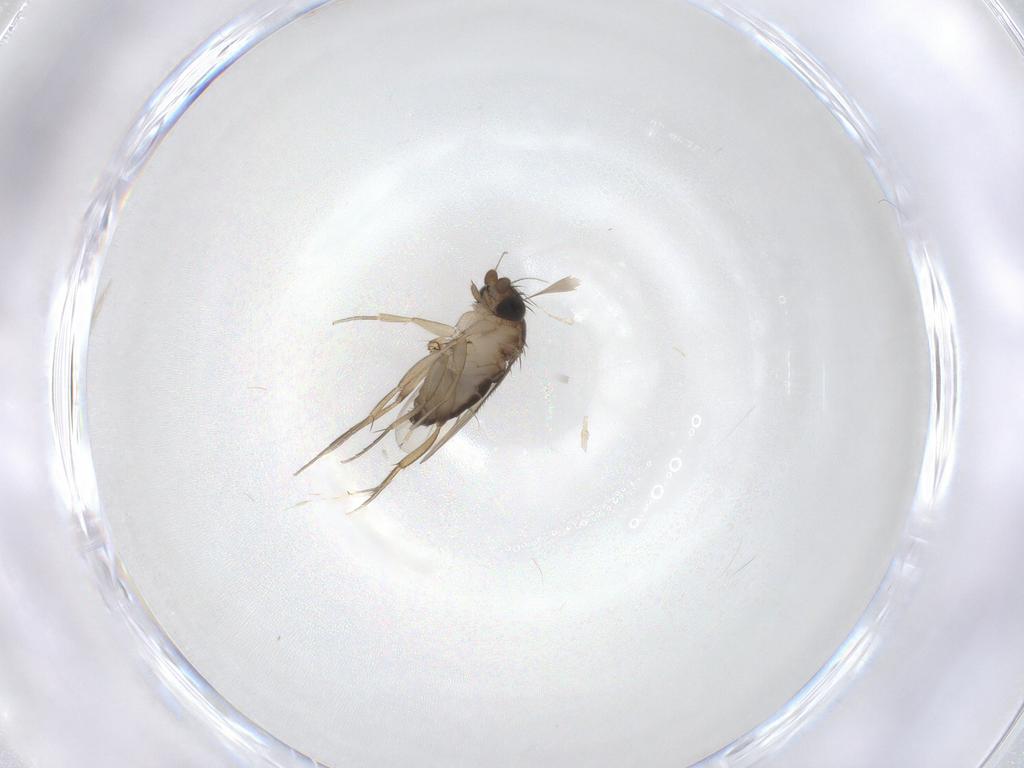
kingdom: Animalia
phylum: Arthropoda
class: Insecta
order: Diptera
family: Phoridae
